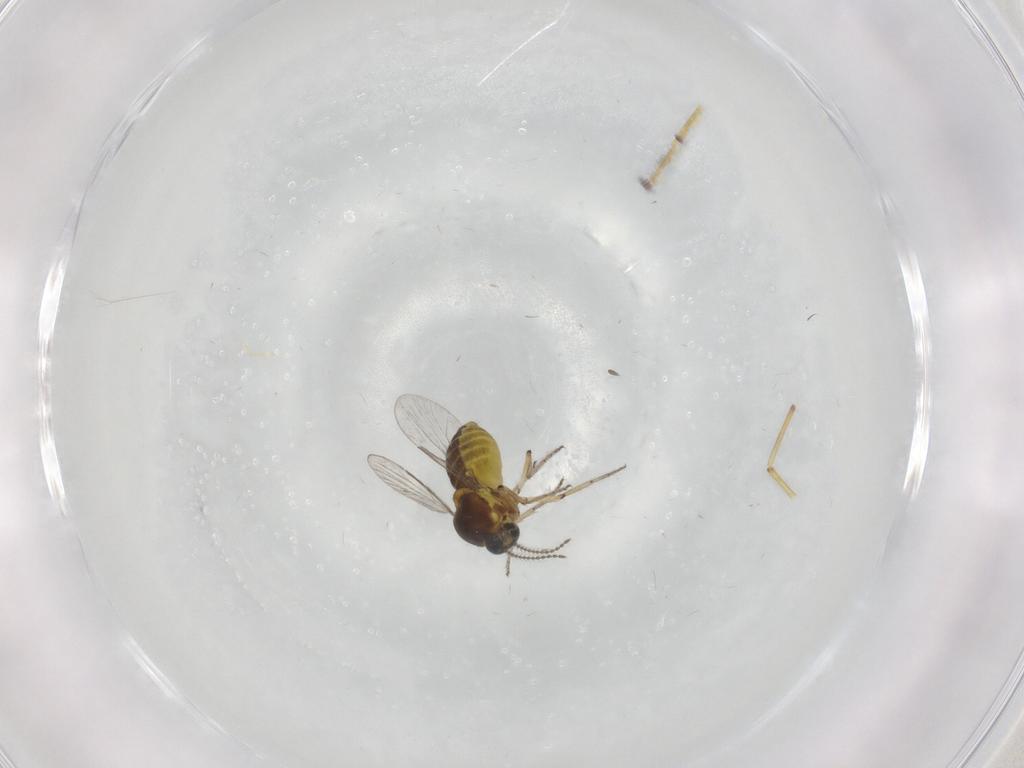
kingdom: Animalia
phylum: Arthropoda
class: Insecta
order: Diptera
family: Ceratopogonidae
